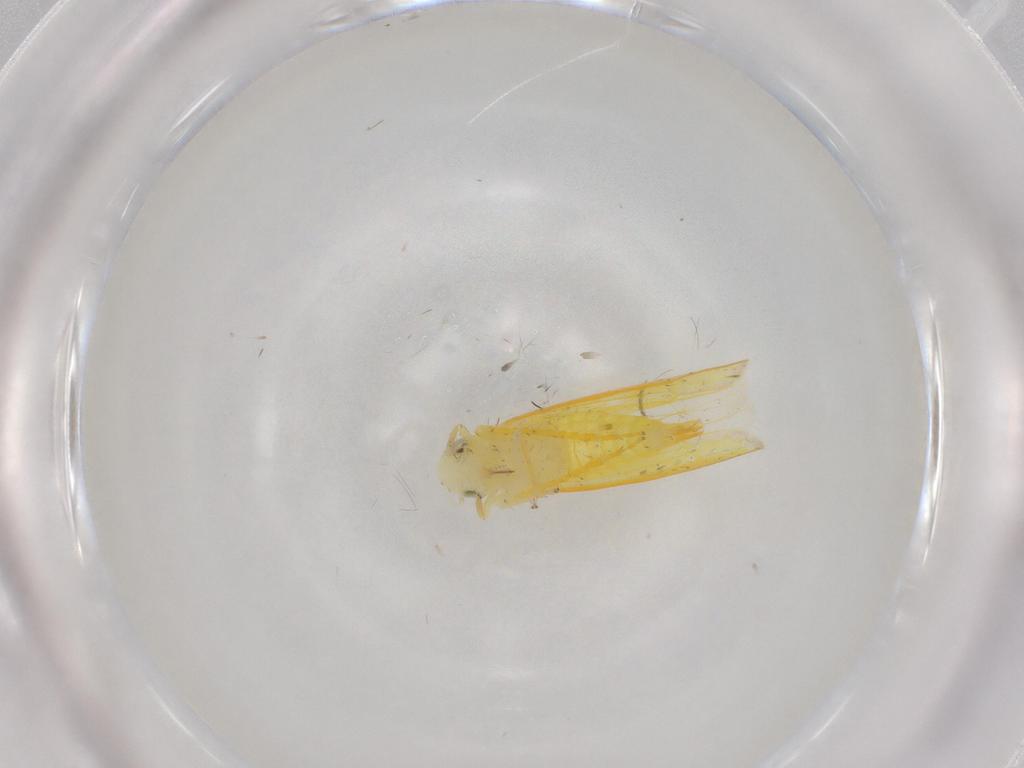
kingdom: Animalia
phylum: Arthropoda
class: Insecta
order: Hemiptera
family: Cicadellidae
